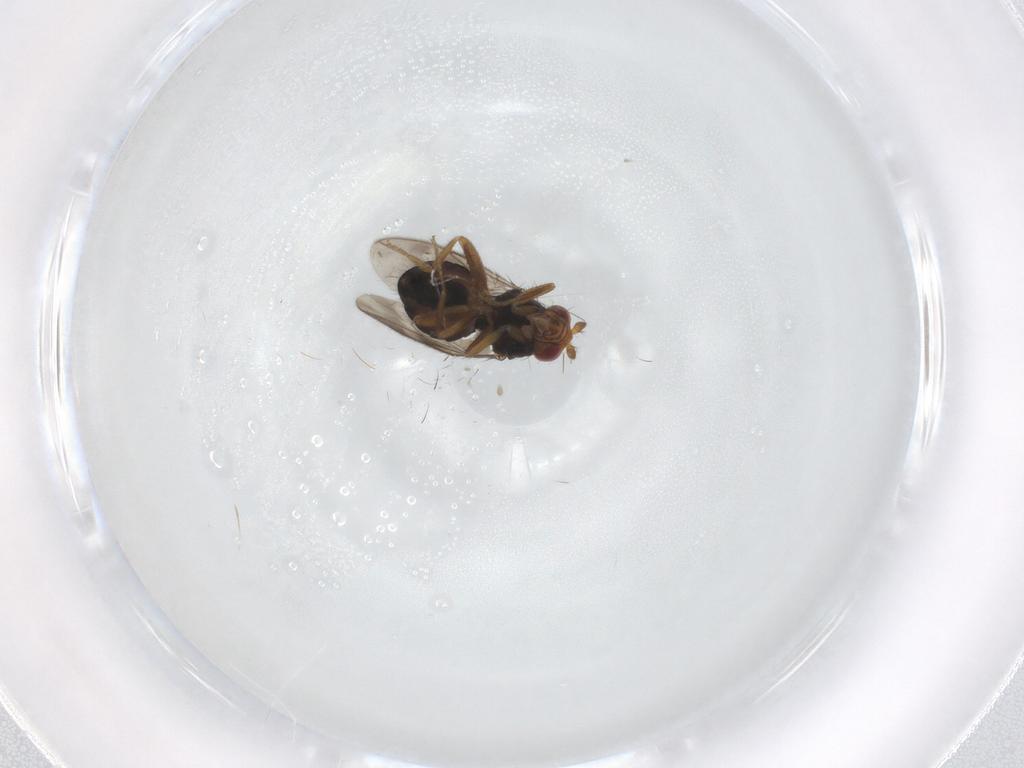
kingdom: Animalia
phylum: Arthropoda
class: Insecta
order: Diptera
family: Sphaeroceridae
